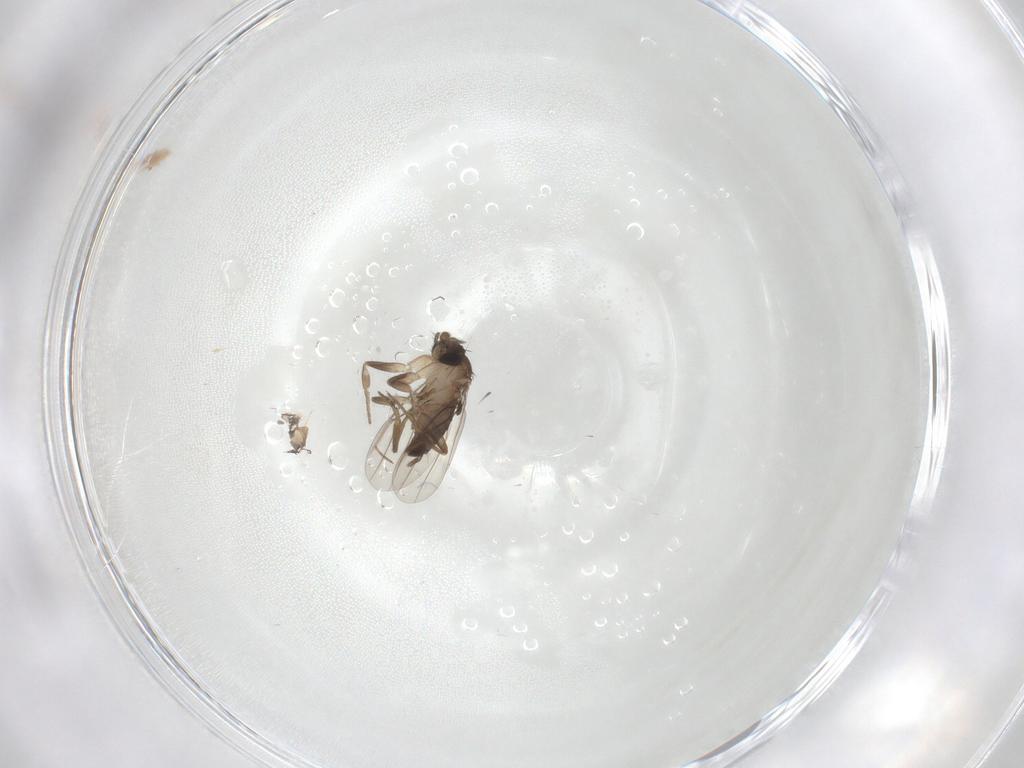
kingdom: Animalia
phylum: Arthropoda
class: Insecta
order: Diptera
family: Phoridae
